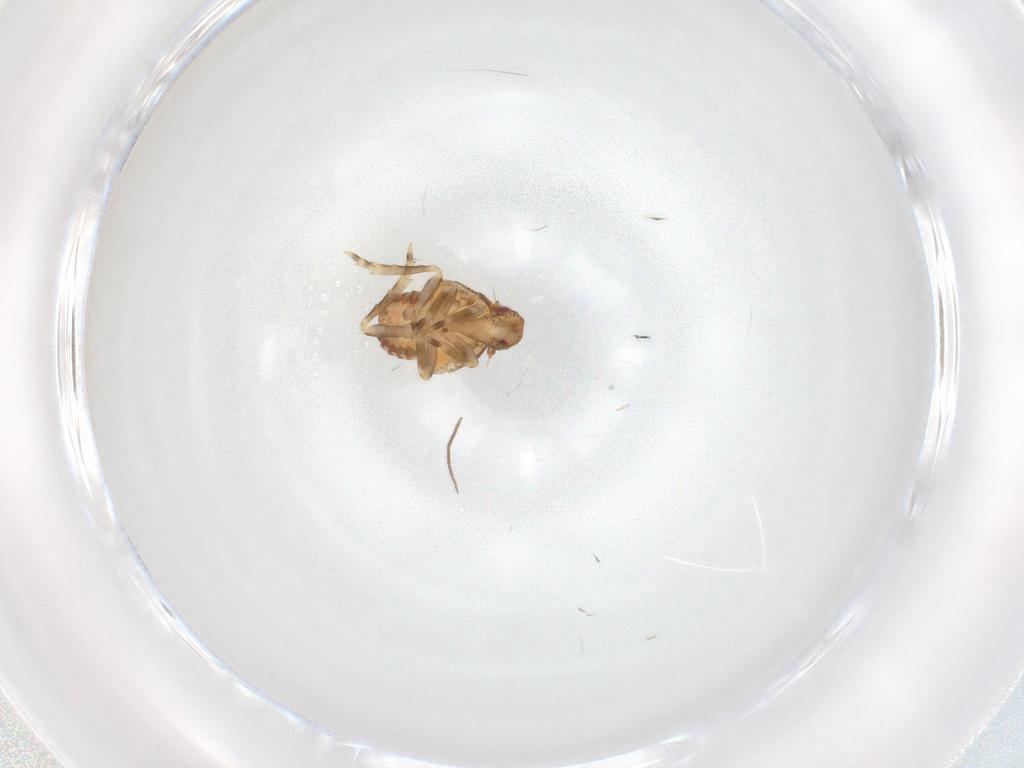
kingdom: Animalia
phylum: Arthropoda
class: Insecta
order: Hemiptera
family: Flatidae
